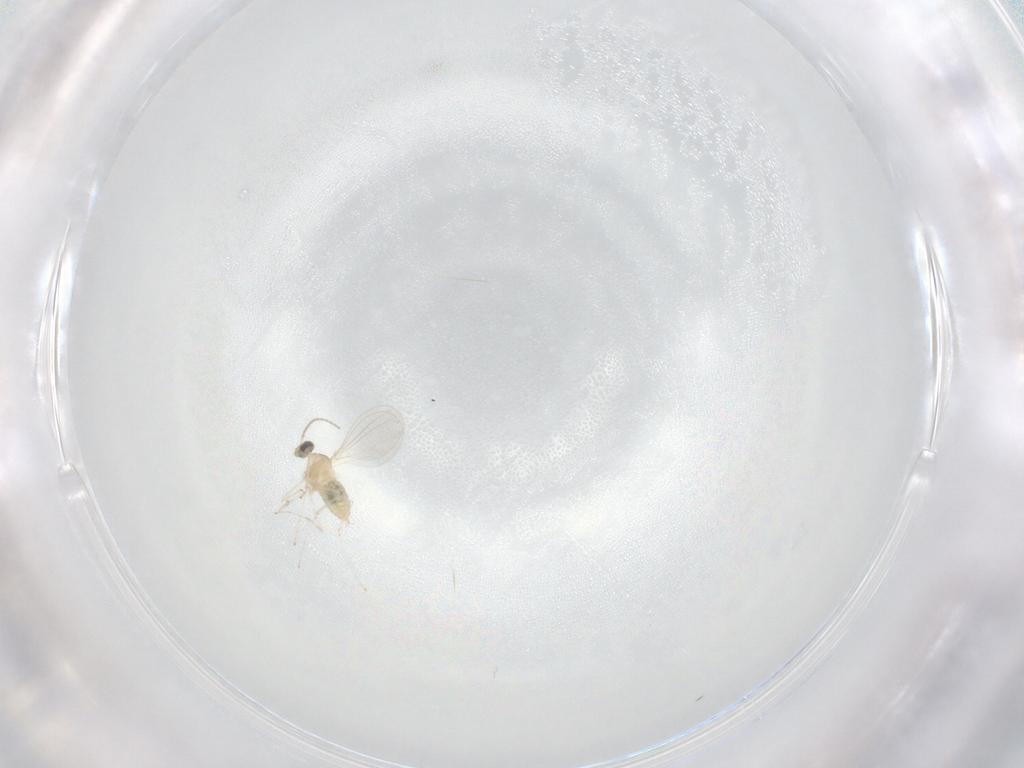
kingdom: Animalia
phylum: Arthropoda
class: Insecta
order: Diptera
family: Cecidomyiidae
